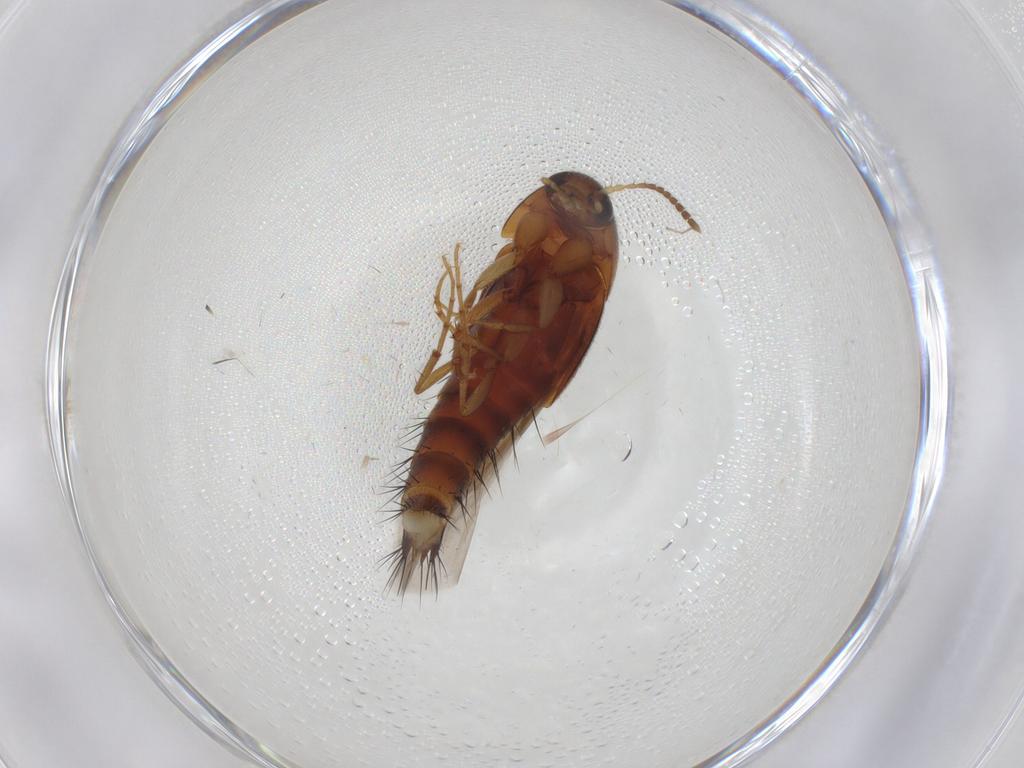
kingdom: Animalia
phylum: Arthropoda
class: Insecta
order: Coleoptera
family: Staphylinidae
